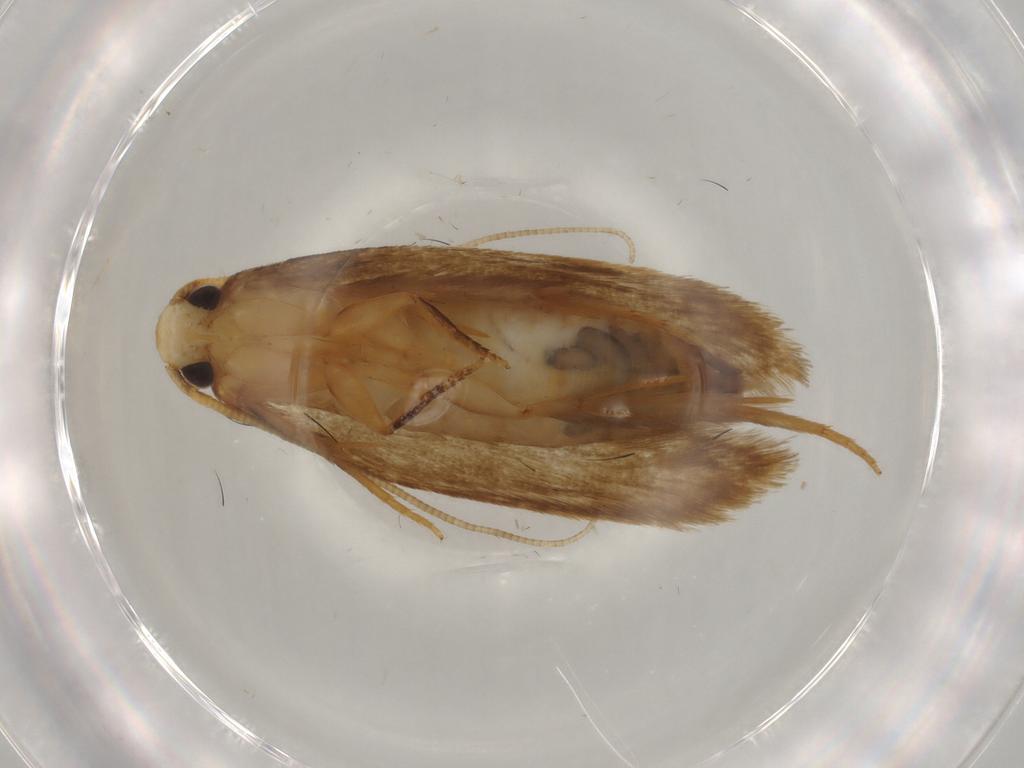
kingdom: Animalia
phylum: Arthropoda
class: Insecta
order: Lepidoptera
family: Tineidae
